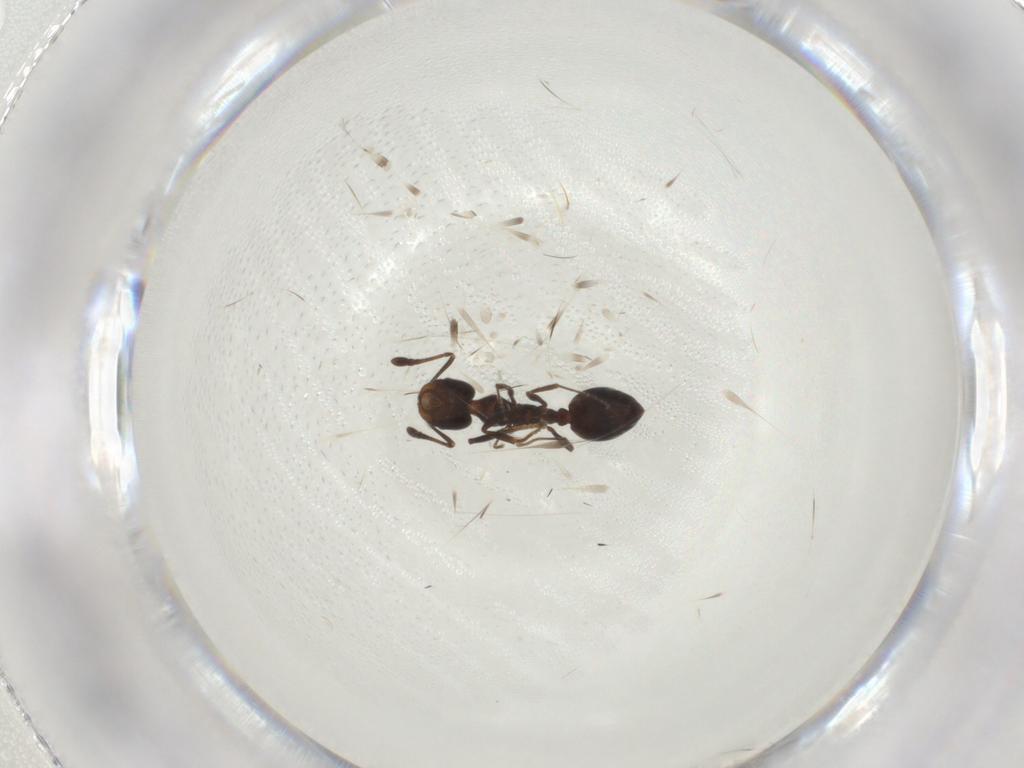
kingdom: Animalia
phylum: Arthropoda
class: Insecta
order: Hymenoptera
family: Formicidae
